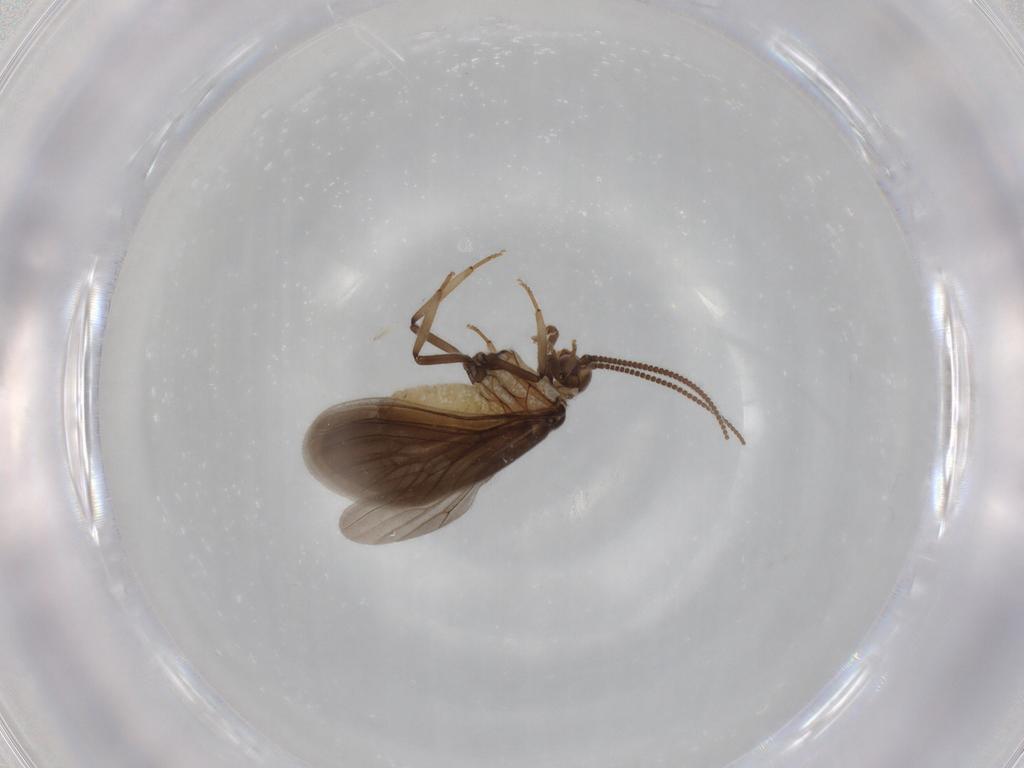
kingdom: Animalia
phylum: Arthropoda
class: Insecta
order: Neuroptera
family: Coniopterygidae
